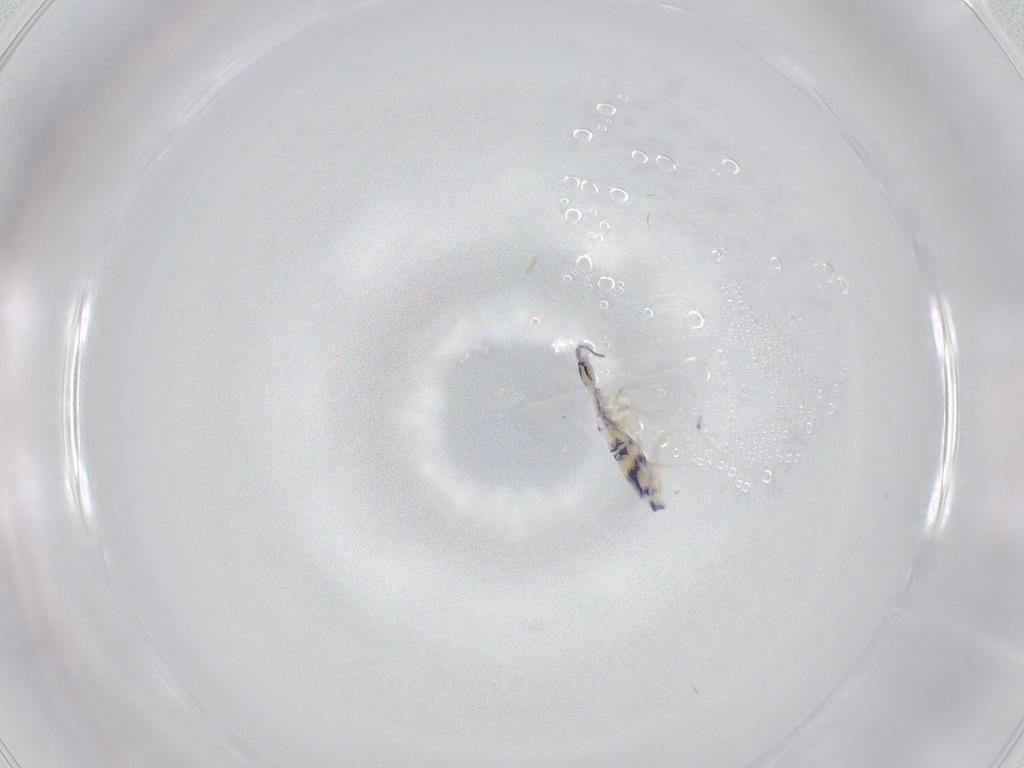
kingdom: Animalia
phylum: Arthropoda
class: Collembola
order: Entomobryomorpha
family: Entomobryidae
